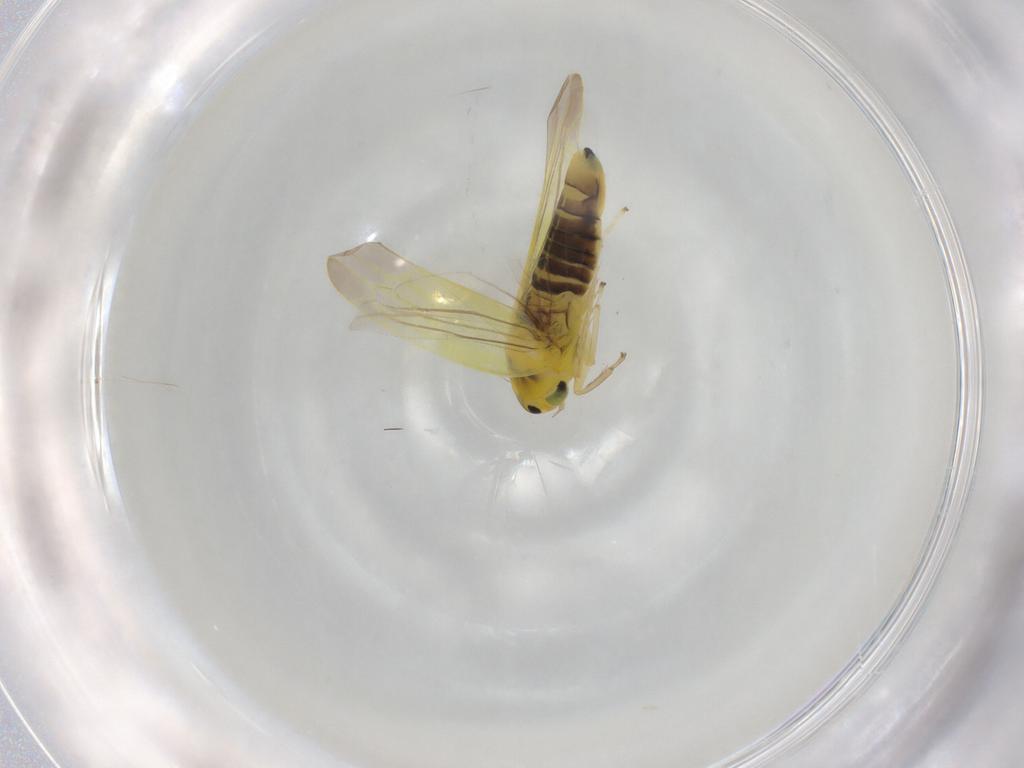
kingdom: Animalia
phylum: Arthropoda
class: Insecta
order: Hemiptera
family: Cicadellidae
